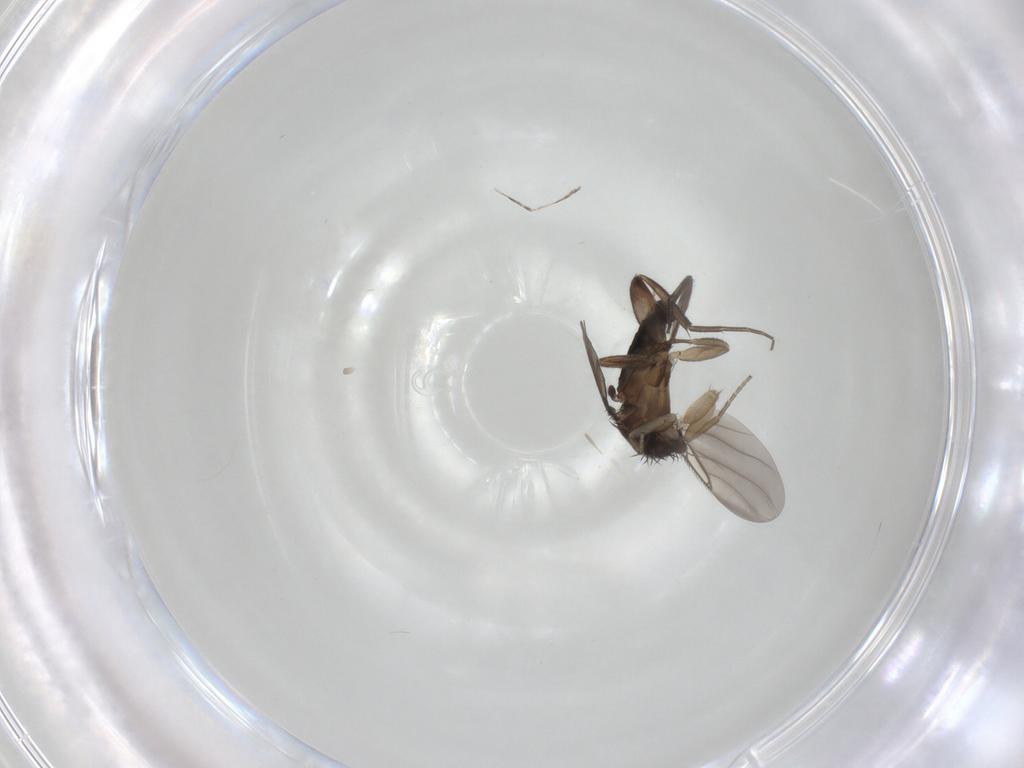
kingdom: Animalia
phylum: Arthropoda
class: Insecta
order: Diptera
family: Phoridae
